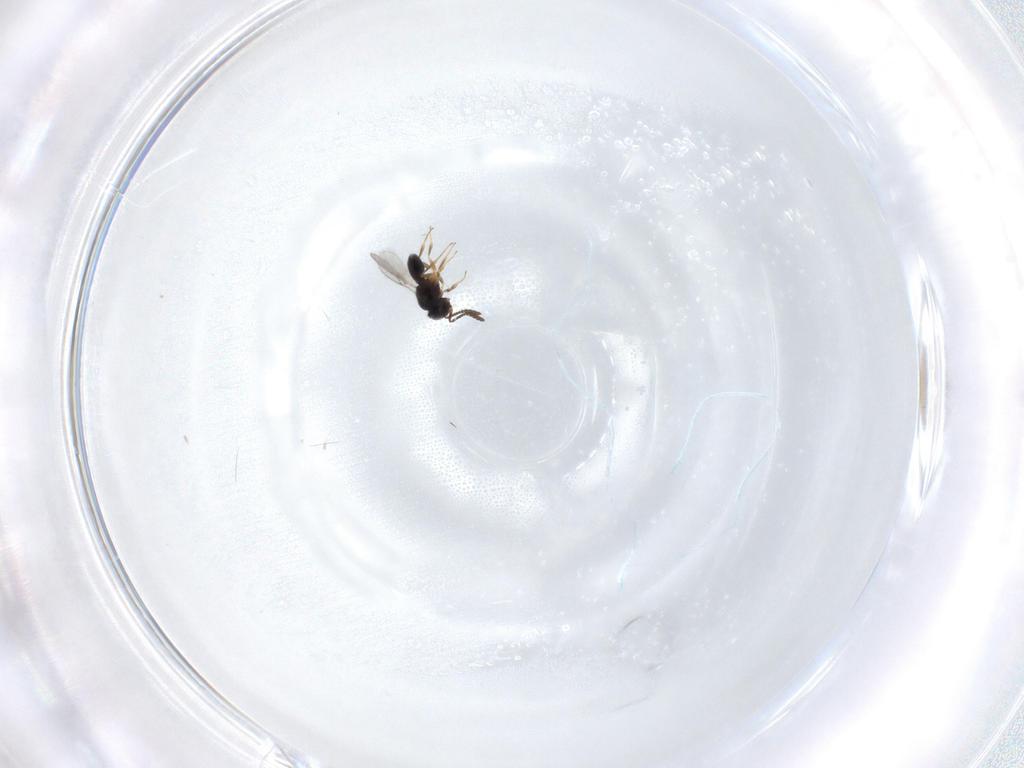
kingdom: Animalia
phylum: Arthropoda
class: Insecta
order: Hymenoptera
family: Scelionidae
